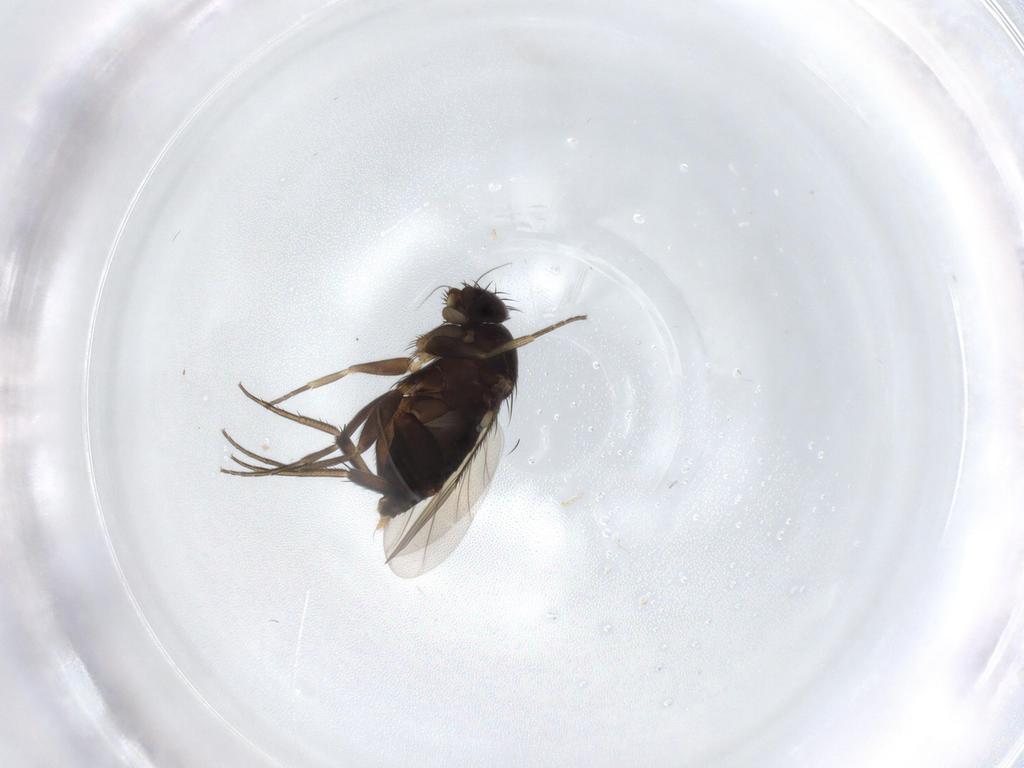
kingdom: Animalia
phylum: Arthropoda
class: Insecta
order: Diptera
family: Phoridae
